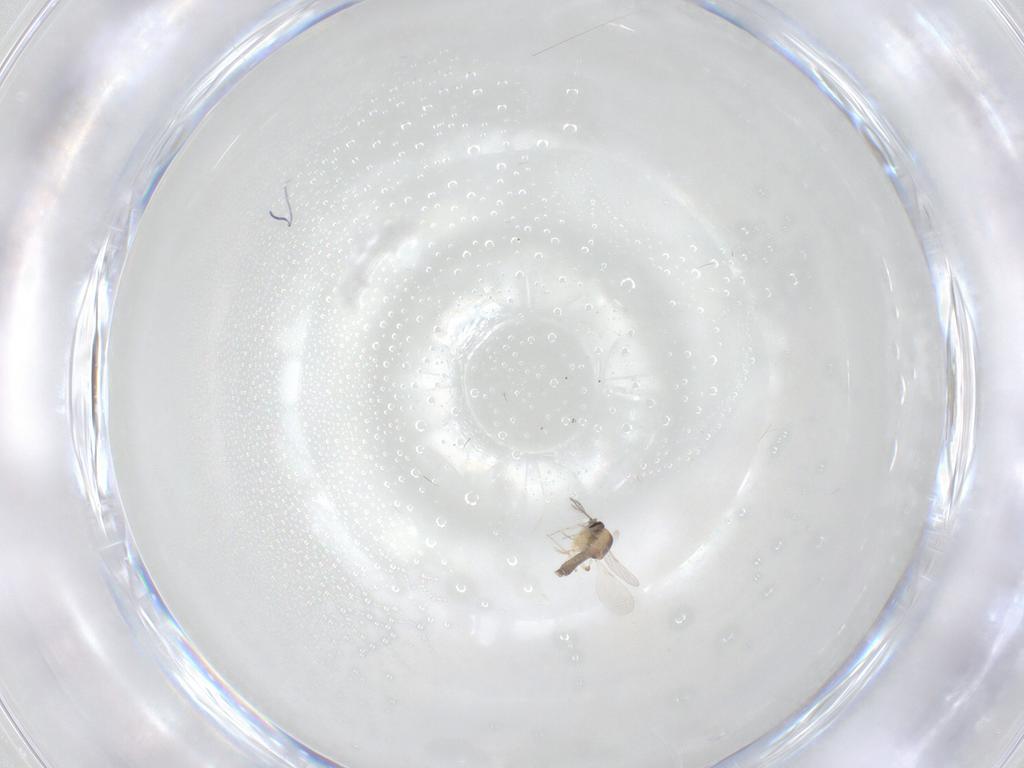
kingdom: Animalia
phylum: Arthropoda
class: Insecta
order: Diptera
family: Ceratopogonidae
